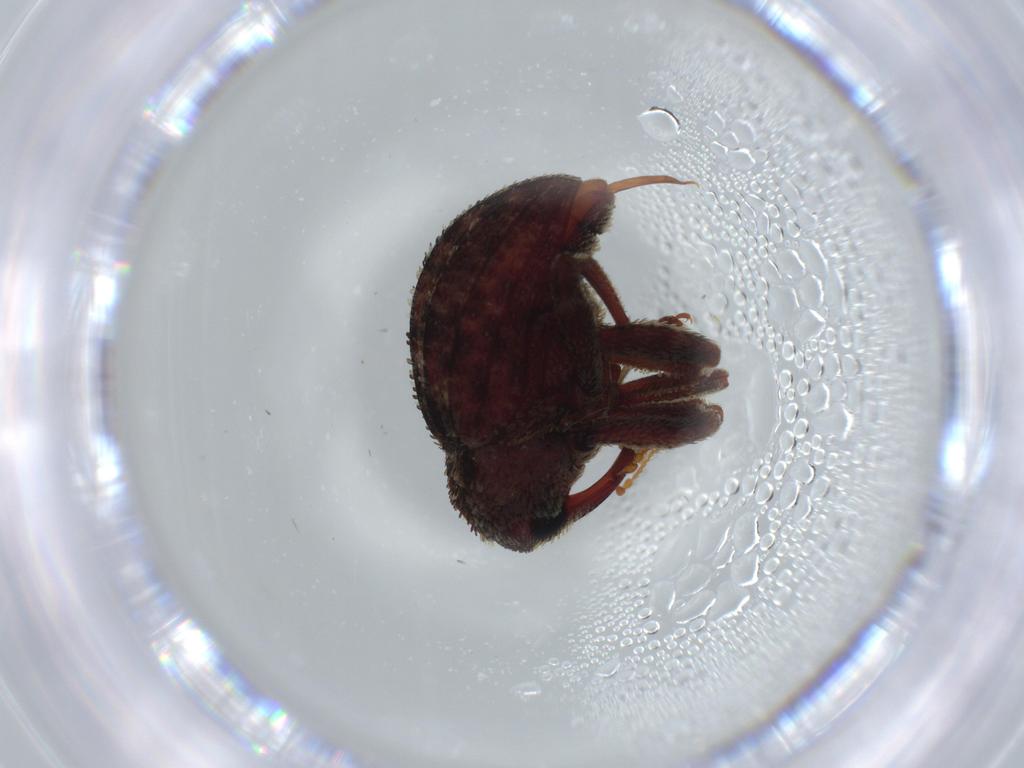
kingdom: Animalia
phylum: Arthropoda
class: Insecta
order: Coleoptera
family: Curculionidae
